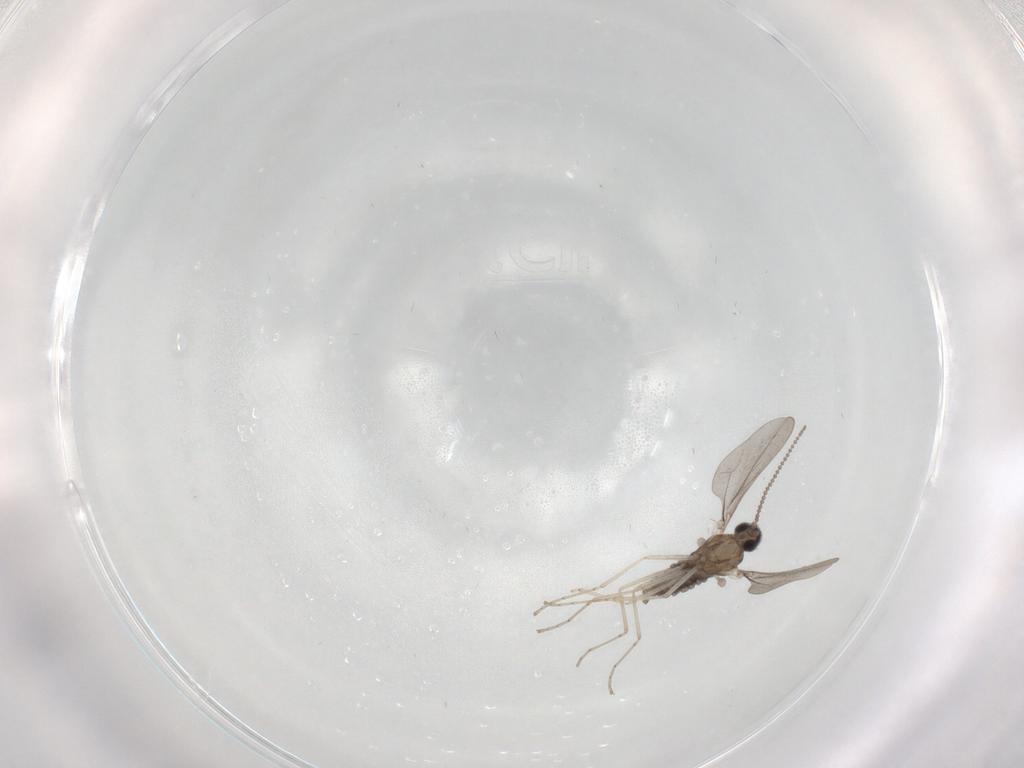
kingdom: Animalia
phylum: Arthropoda
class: Insecta
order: Diptera
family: Cecidomyiidae
